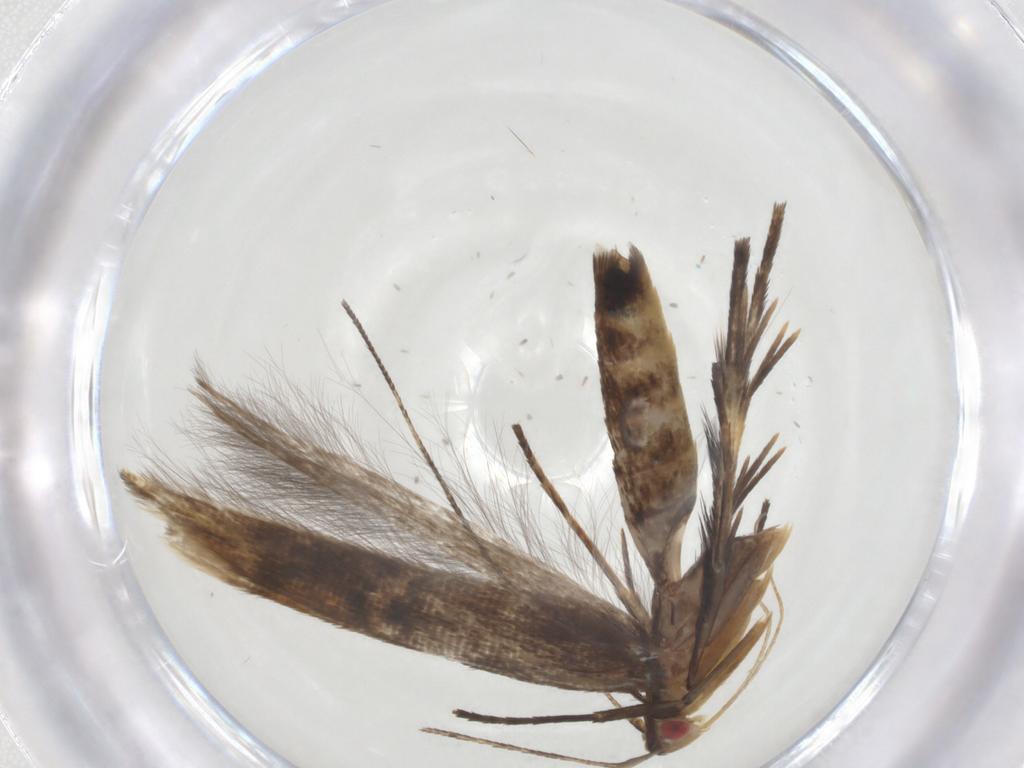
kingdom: Animalia
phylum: Arthropoda
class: Insecta
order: Lepidoptera
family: Cosmopterigidae
